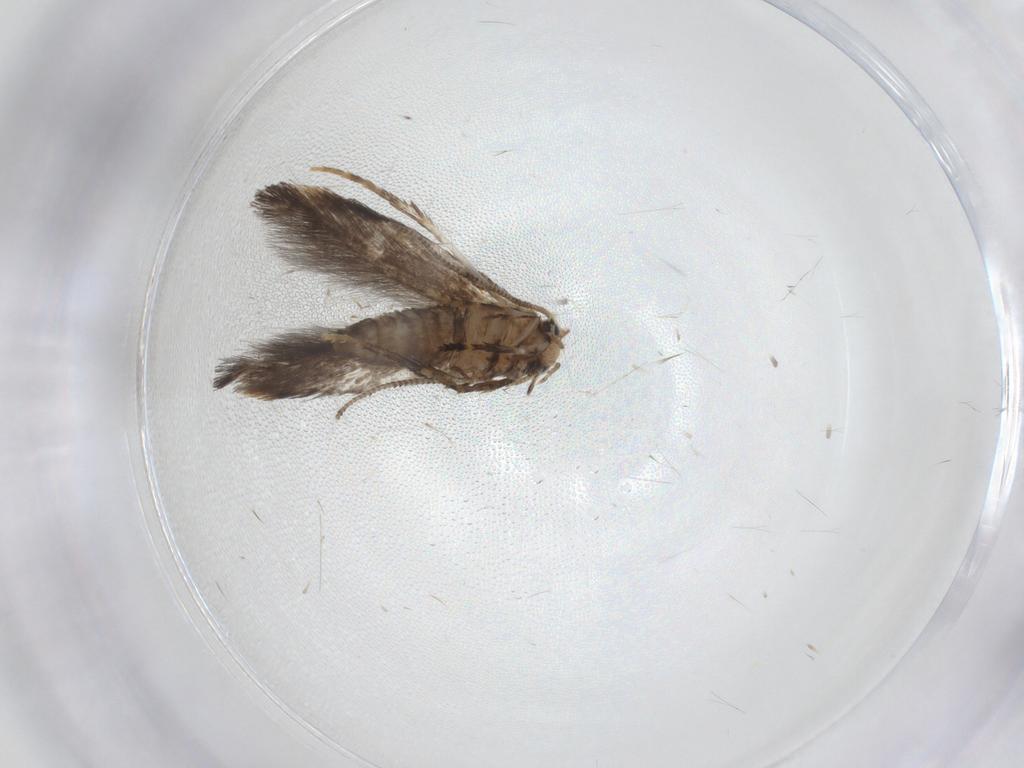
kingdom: Animalia
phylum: Arthropoda
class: Insecta
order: Lepidoptera
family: Tineidae
